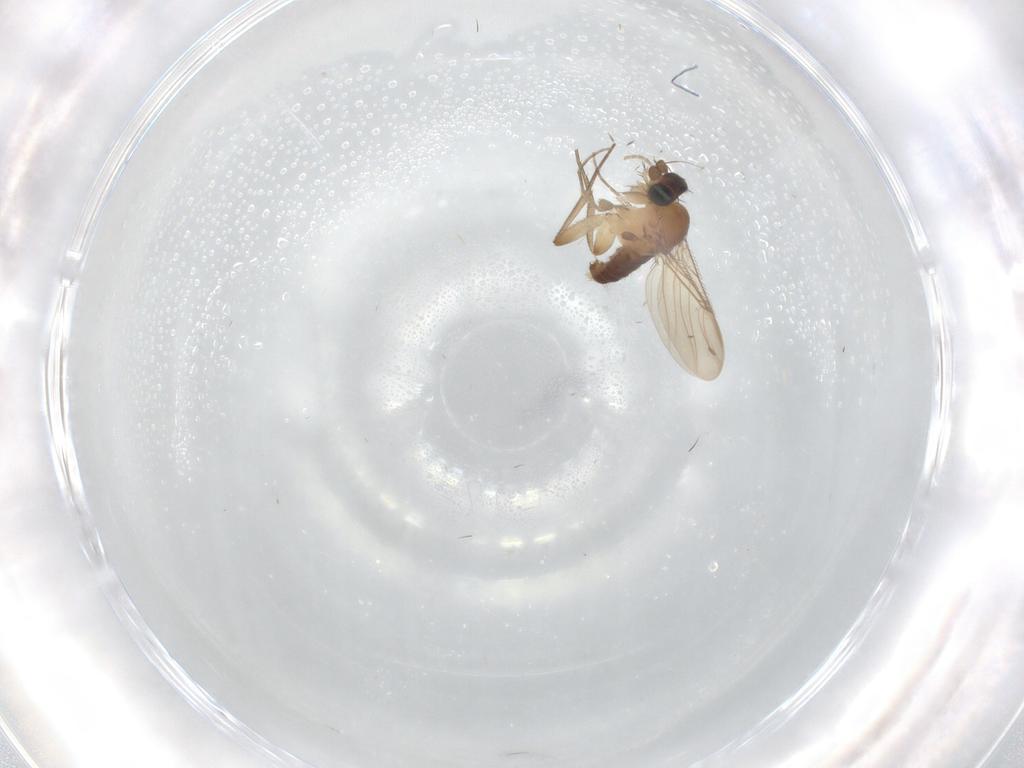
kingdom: Animalia
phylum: Arthropoda
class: Insecta
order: Diptera
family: Phoridae
